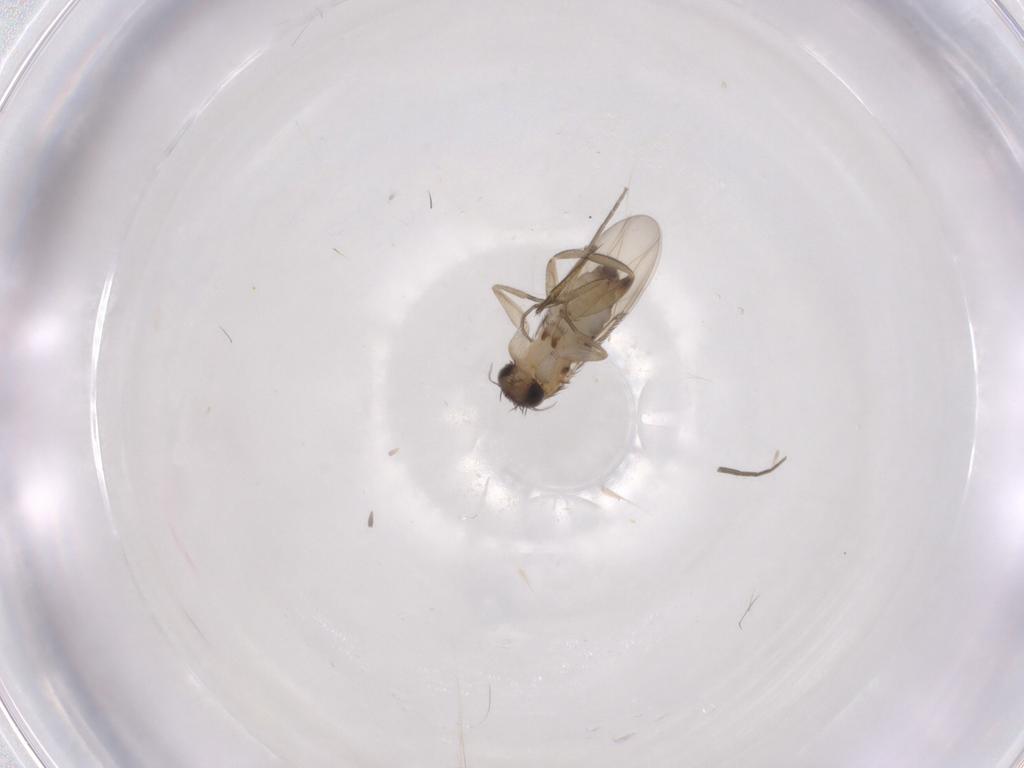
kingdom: Animalia
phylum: Arthropoda
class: Insecta
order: Diptera
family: Phoridae
